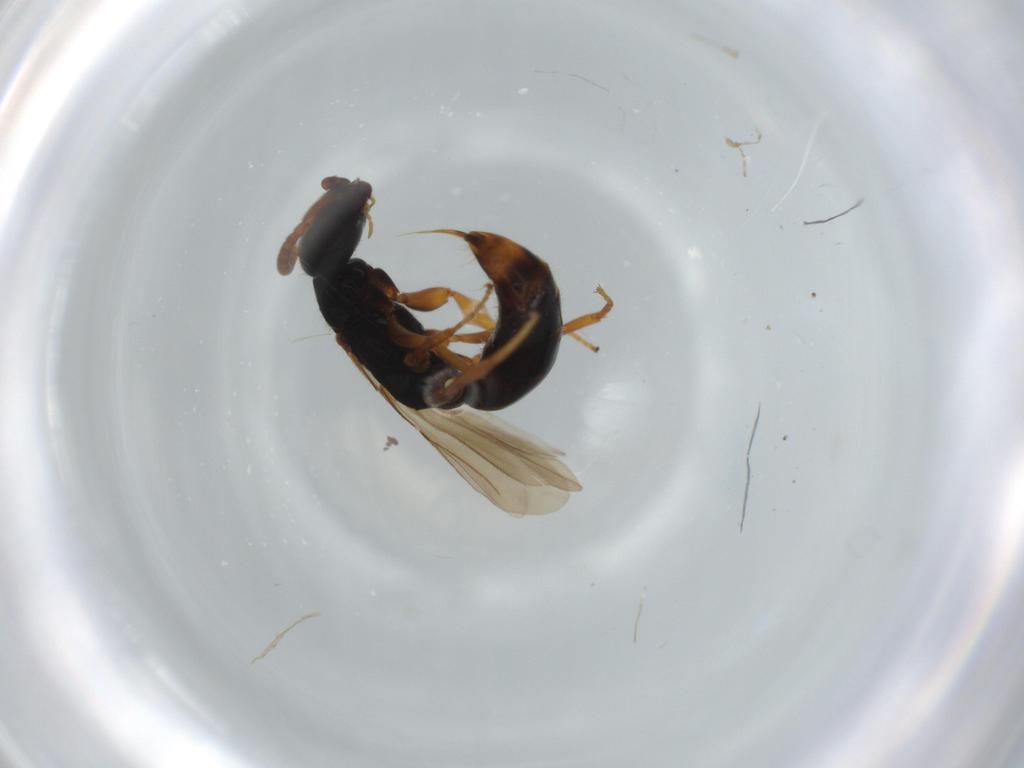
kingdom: Animalia
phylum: Arthropoda
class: Insecta
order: Hymenoptera
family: Bethylidae
